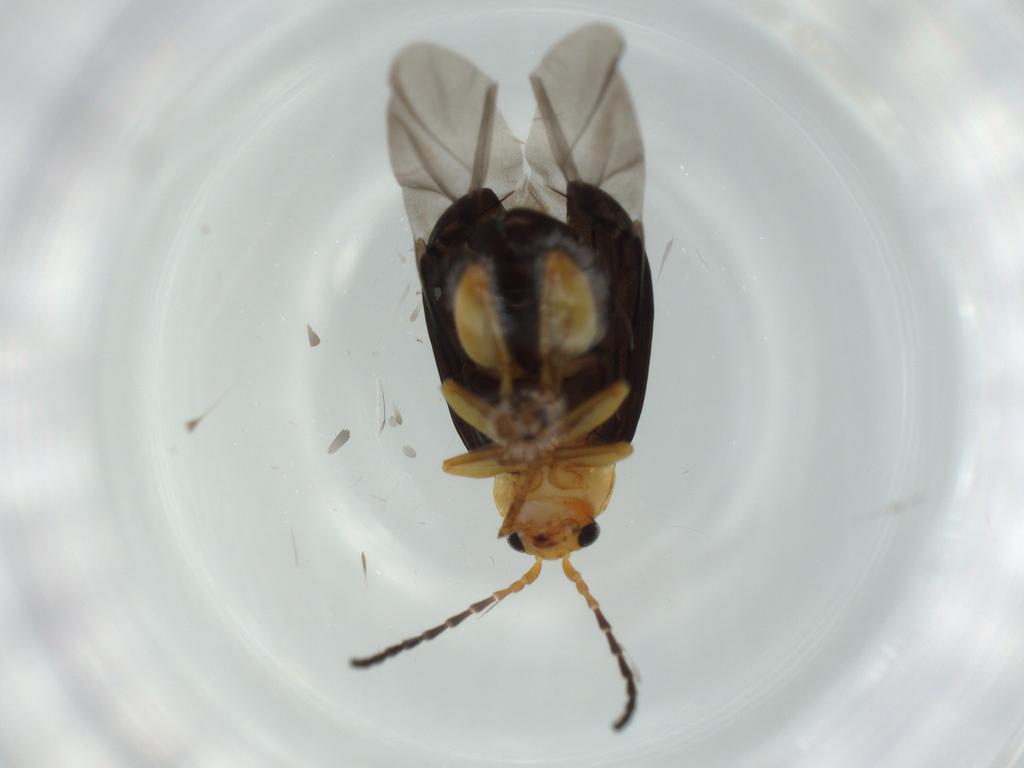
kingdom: Animalia
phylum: Arthropoda
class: Insecta
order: Coleoptera
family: Chrysomelidae
